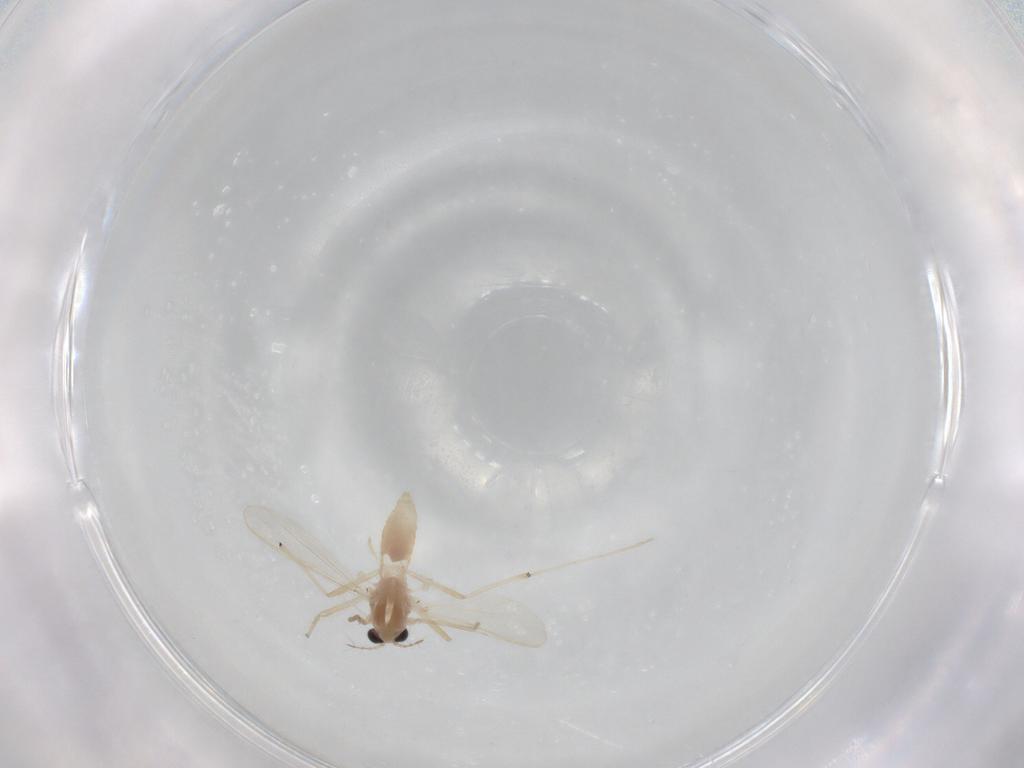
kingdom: Animalia
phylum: Arthropoda
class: Insecta
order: Diptera
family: Chironomidae
